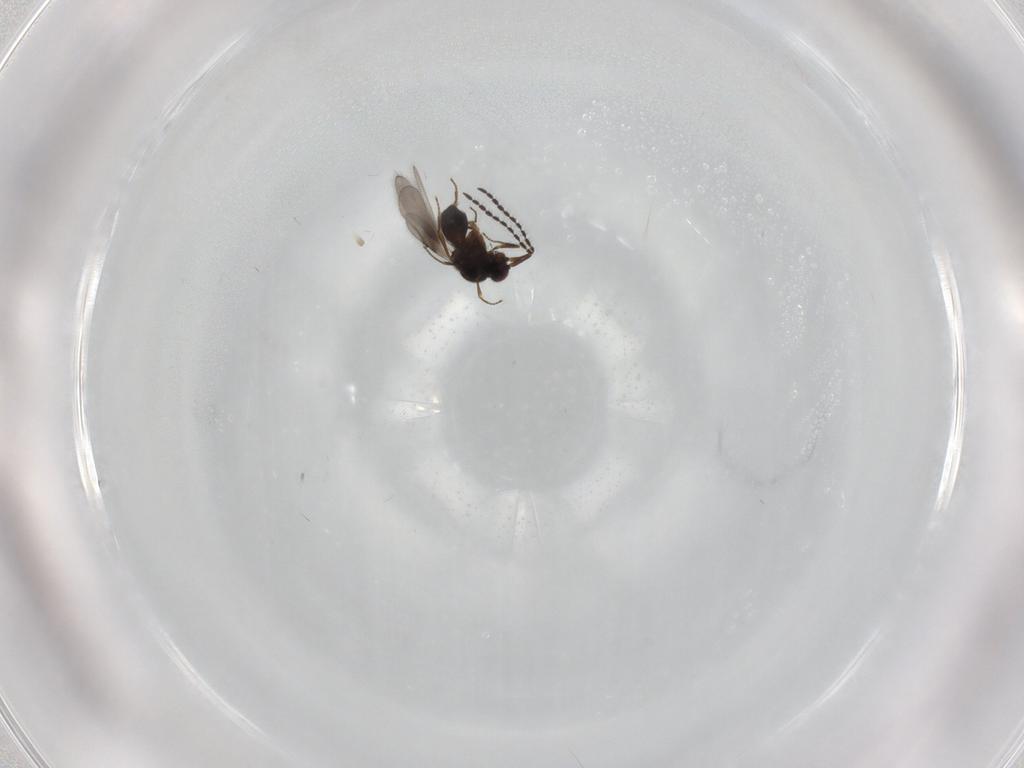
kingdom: Animalia
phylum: Arthropoda
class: Insecta
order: Hymenoptera
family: Ceraphronidae
